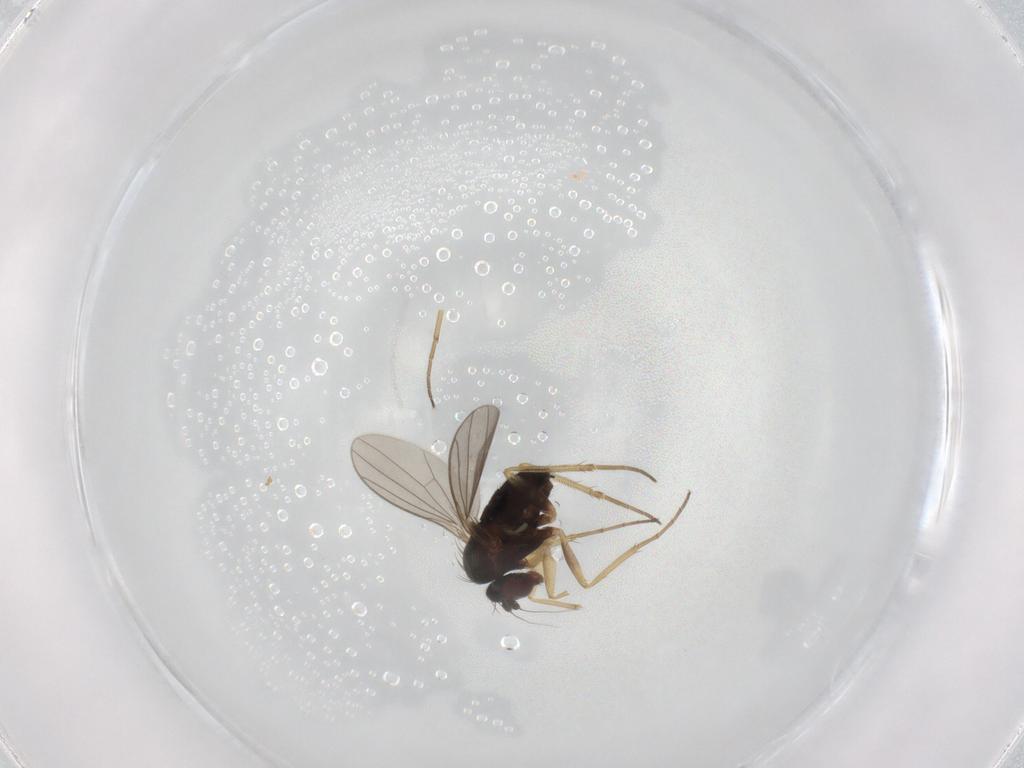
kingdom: Animalia
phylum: Arthropoda
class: Insecta
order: Diptera
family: Dolichopodidae
